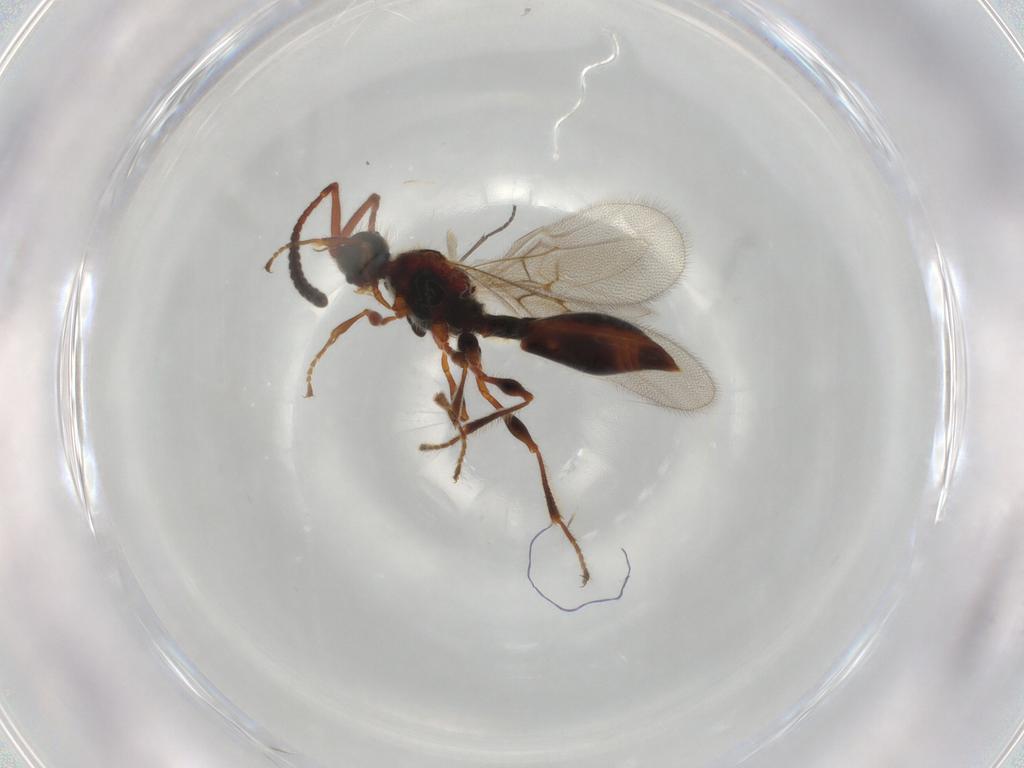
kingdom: Animalia
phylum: Arthropoda
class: Insecta
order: Hymenoptera
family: Diapriidae
